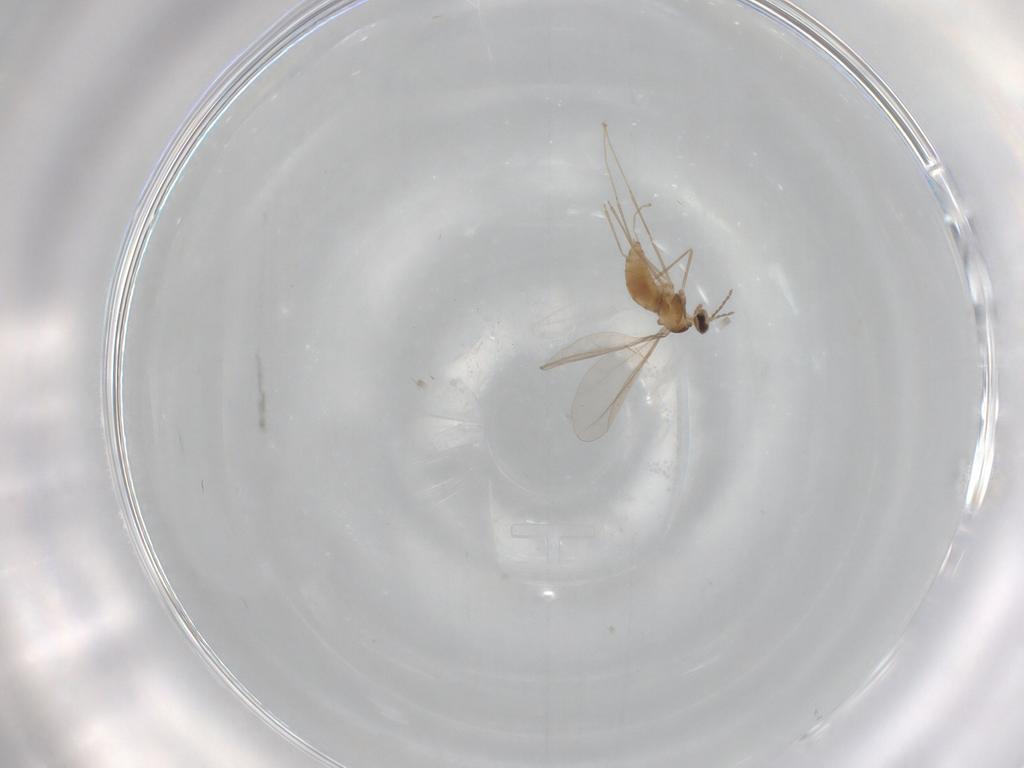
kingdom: Animalia
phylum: Arthropoda
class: Insecta
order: Diptera
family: Cecidomyiidae
